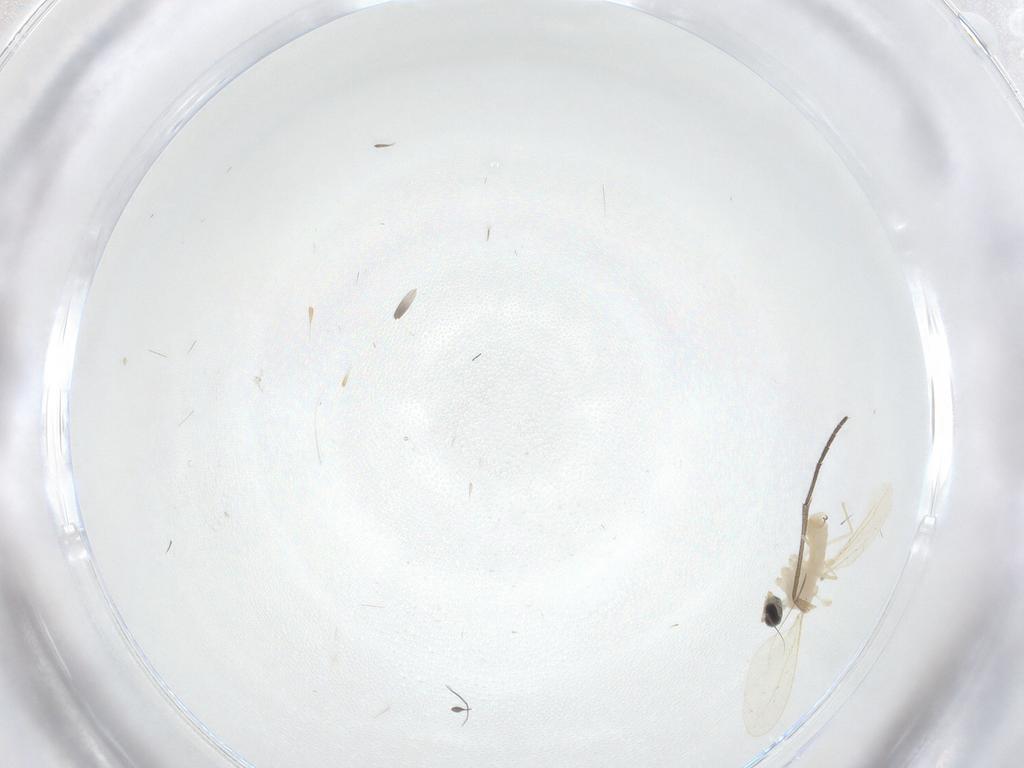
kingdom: Animalia
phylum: Arthropoda
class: Insecta
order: Diptera
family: Cecidomyiidae
